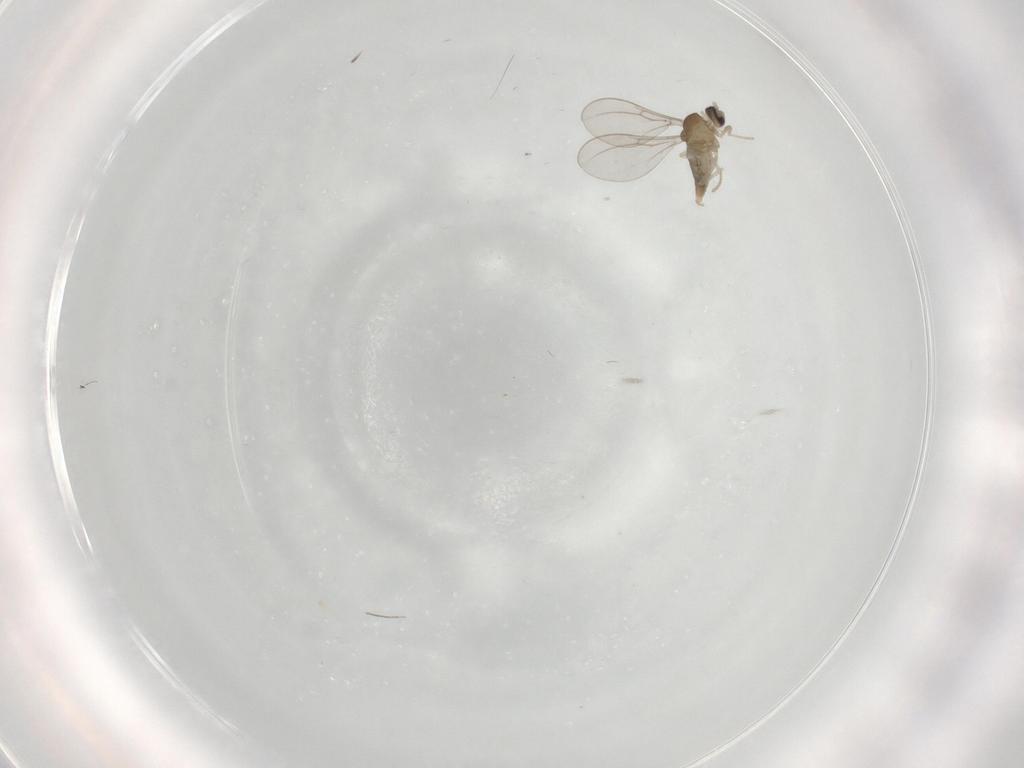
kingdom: Animalia
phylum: Arthropoda
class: Insecta
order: Diptera
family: Cecidomyiidae
